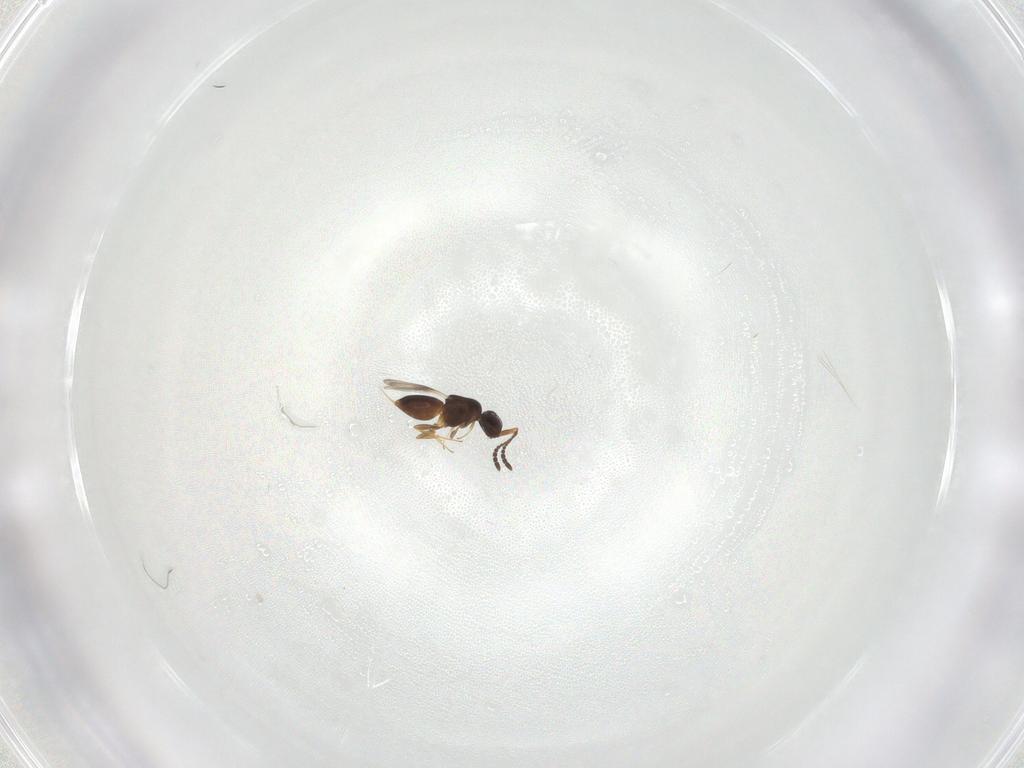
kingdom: Animalia
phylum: Arthropoda
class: Insecta
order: Hymenoptera
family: Ceraphronidae
